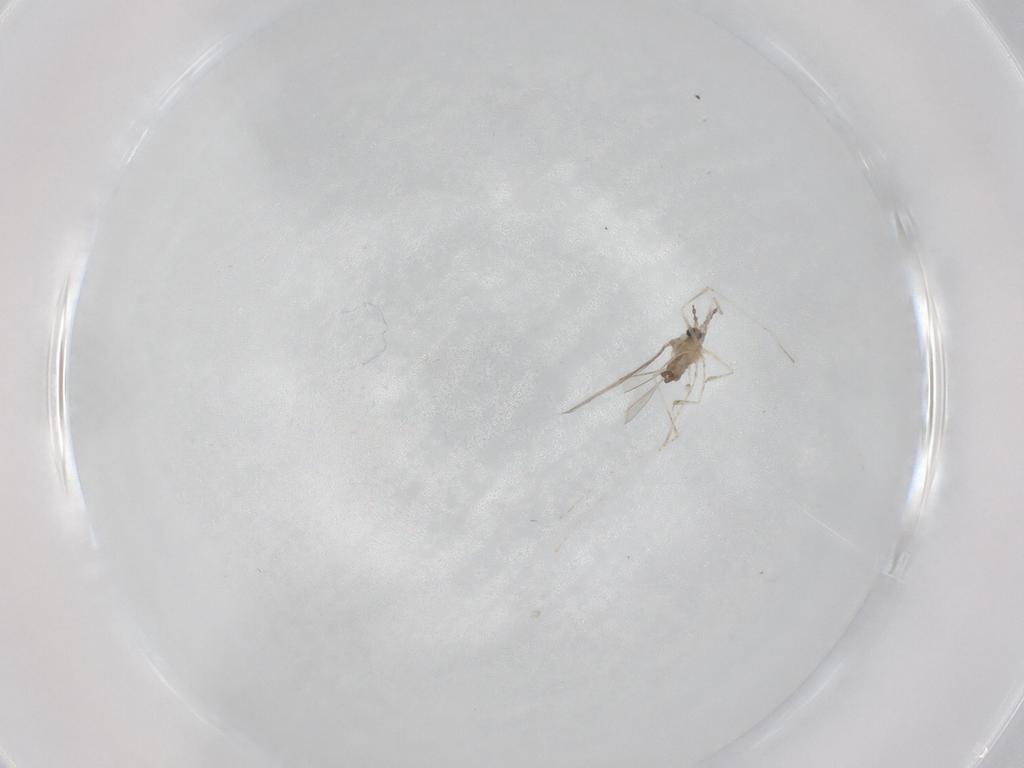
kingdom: Animalia
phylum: Arthropoda
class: Insecta
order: Diptera
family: Cecidomyiidae
